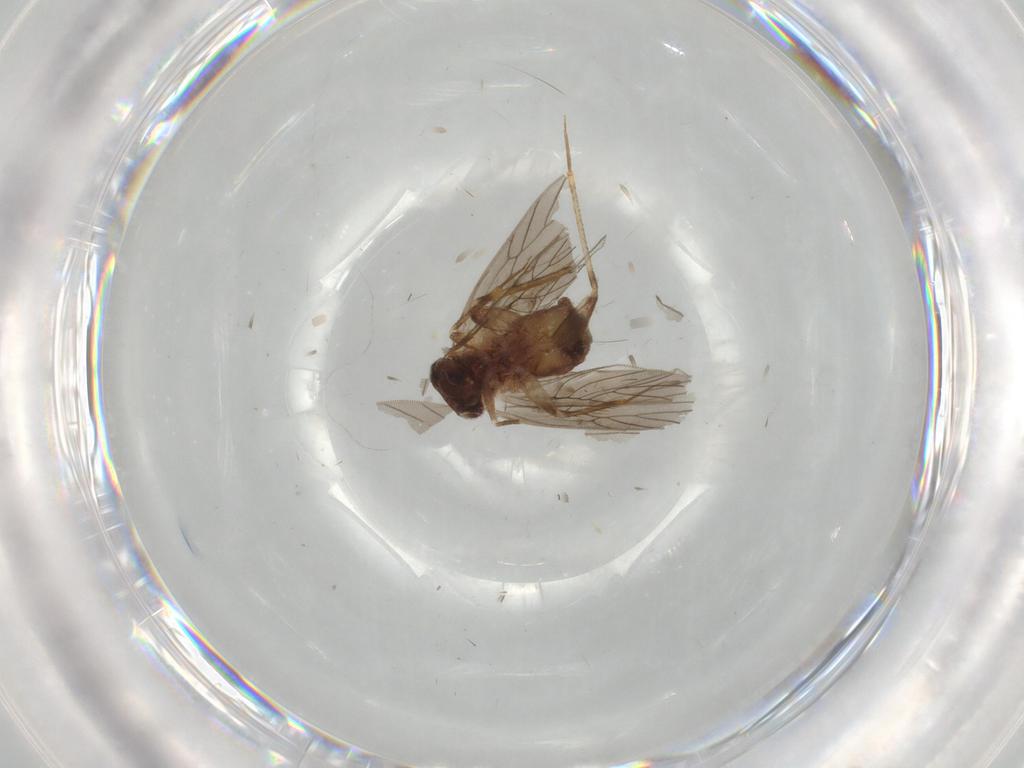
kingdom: Animalia
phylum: Arthropoda
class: Insecta
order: Psocodea
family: Lepidopsocidae
